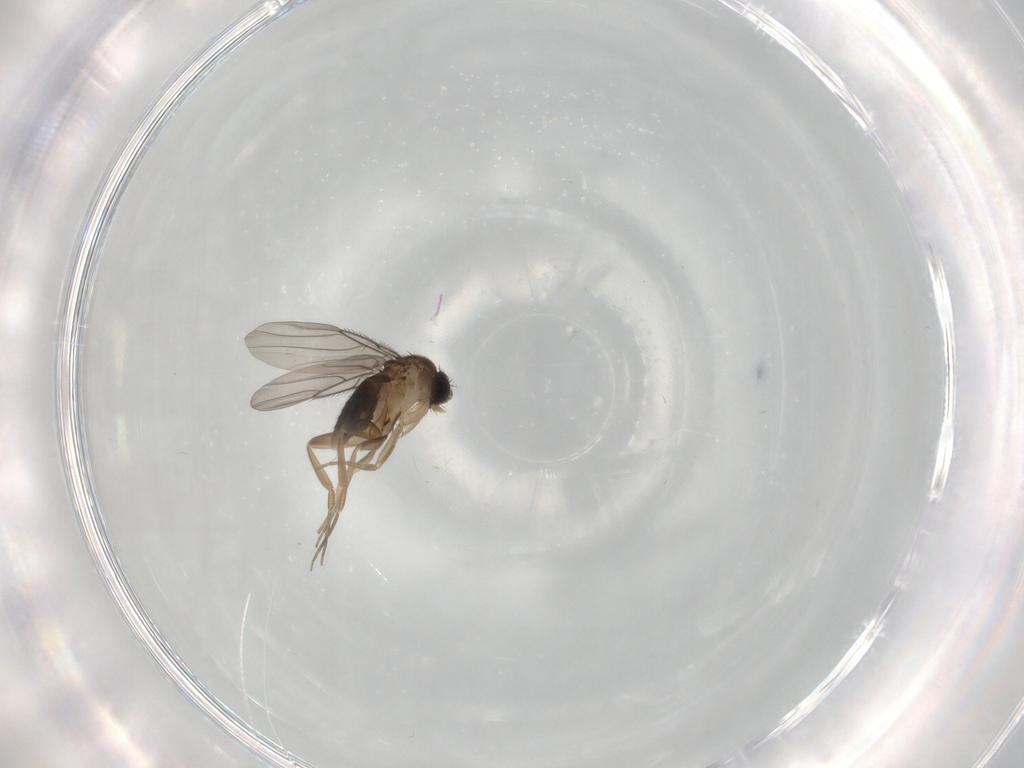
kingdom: Animalia
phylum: Arthropoda
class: Insecta
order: Diptera
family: Phoridae
